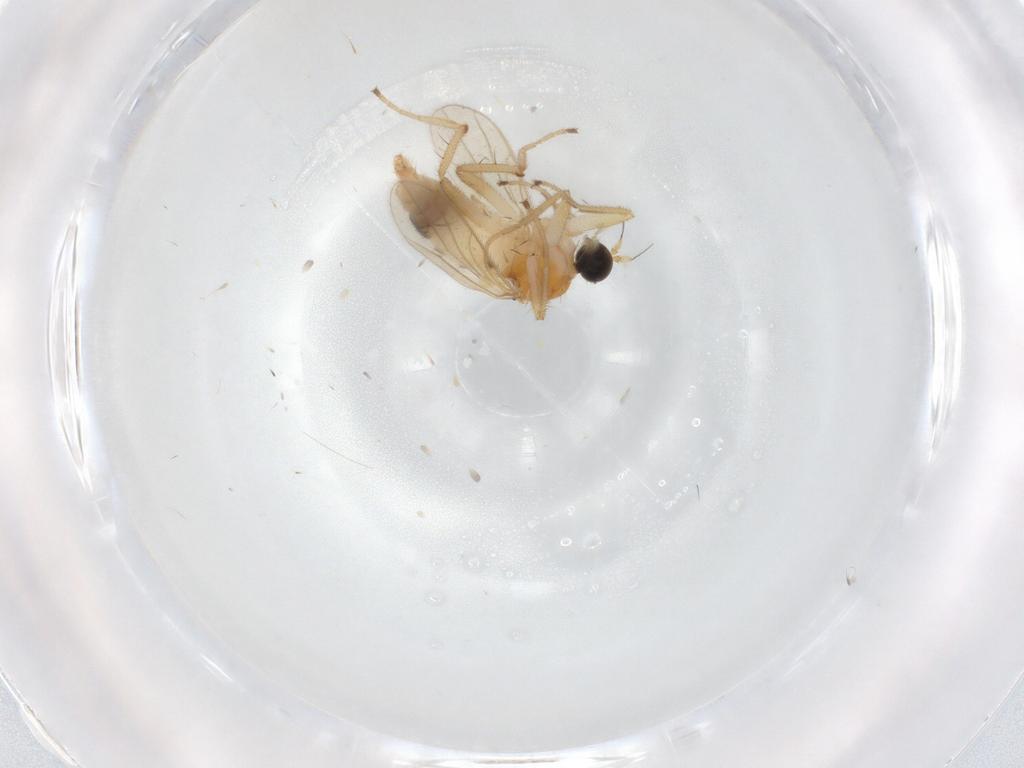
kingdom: Animalia
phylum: Arthropoda
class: Insecta
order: Diptera
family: Hybotidae
